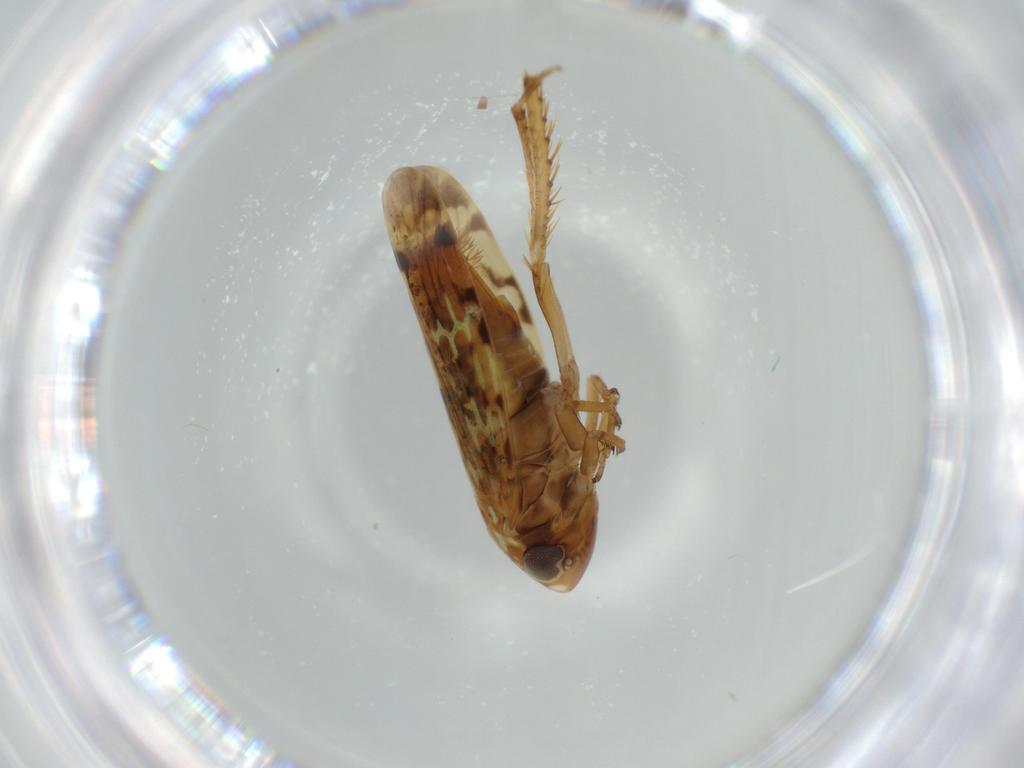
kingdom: Animalia
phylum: Arthropoda
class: Insecta
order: Hemiptera
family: Cicadellidae
